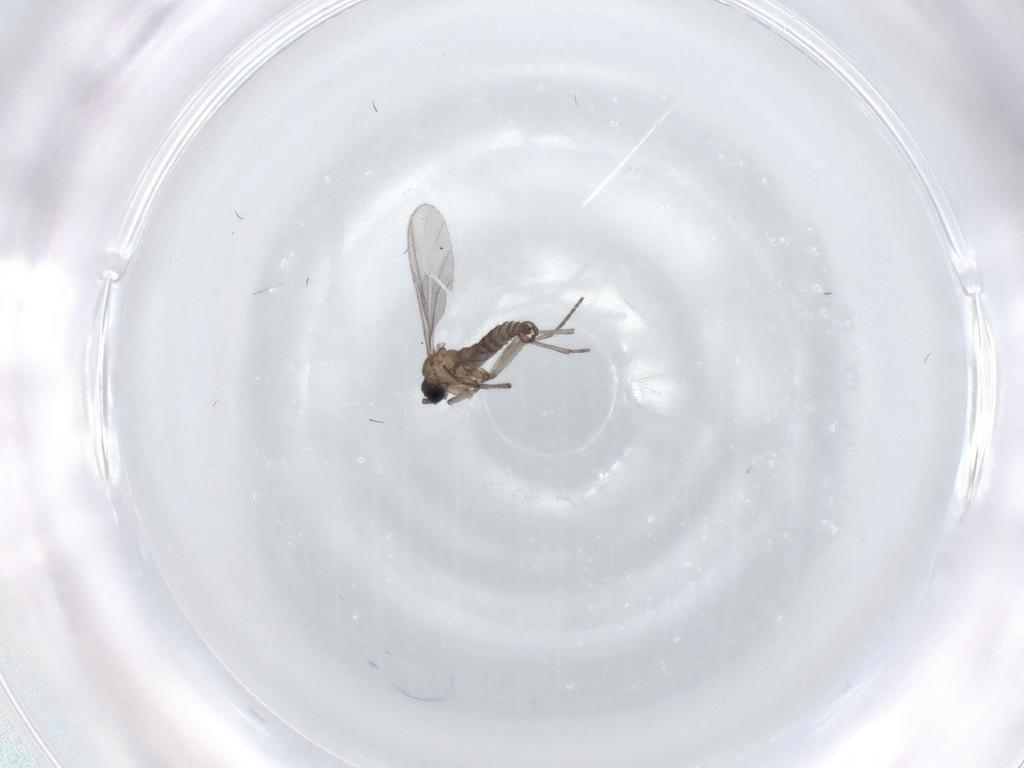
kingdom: Animalia
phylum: Arthropoda
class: Insecta
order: Diptera
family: Sciaridae
